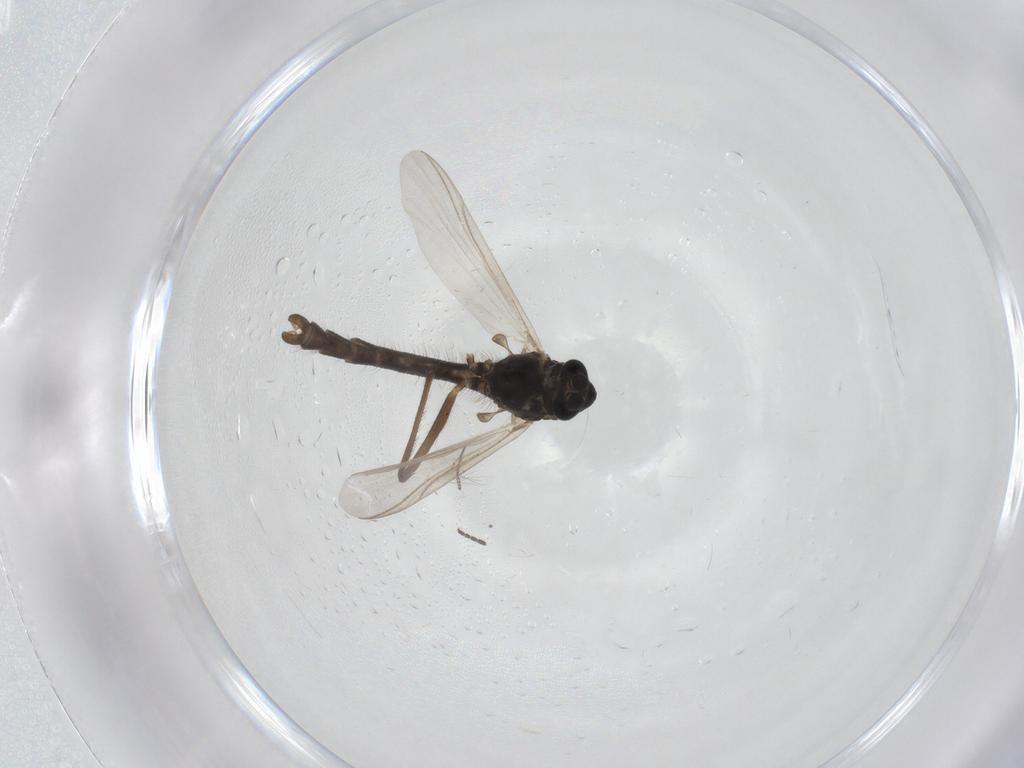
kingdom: Animalia
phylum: Arthropoda
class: Insecta
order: Diptera
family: Chironomidae
